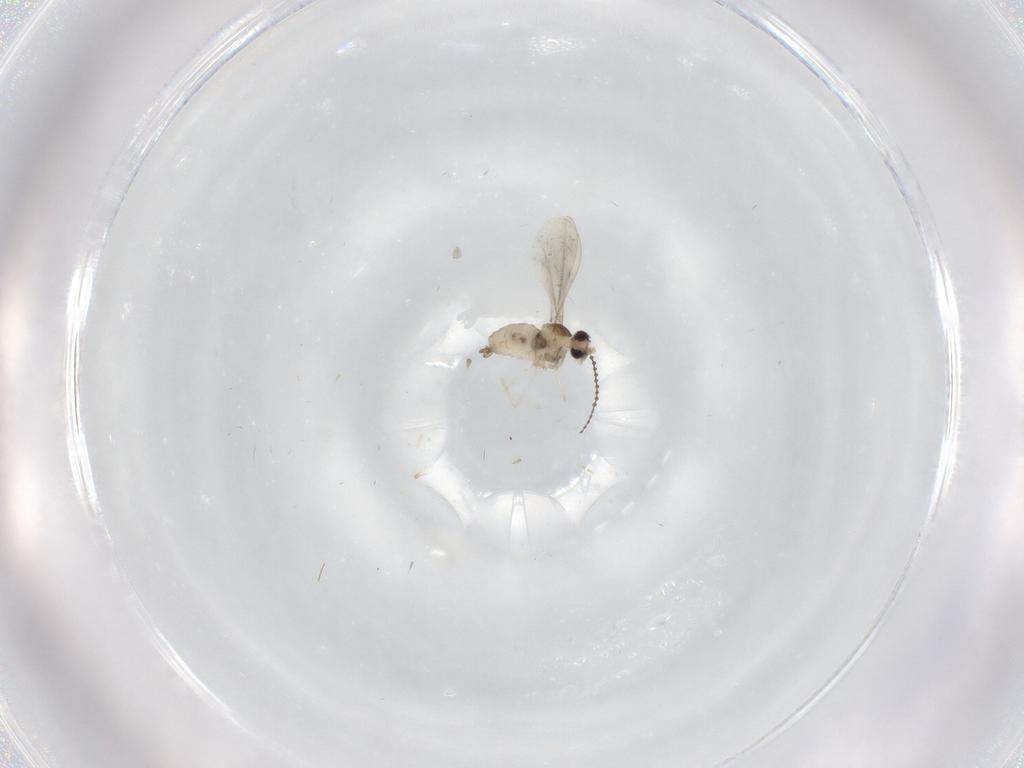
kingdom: Animalia
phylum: Arthropoda
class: Insecta
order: Diptera
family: Cecidomyiidae
